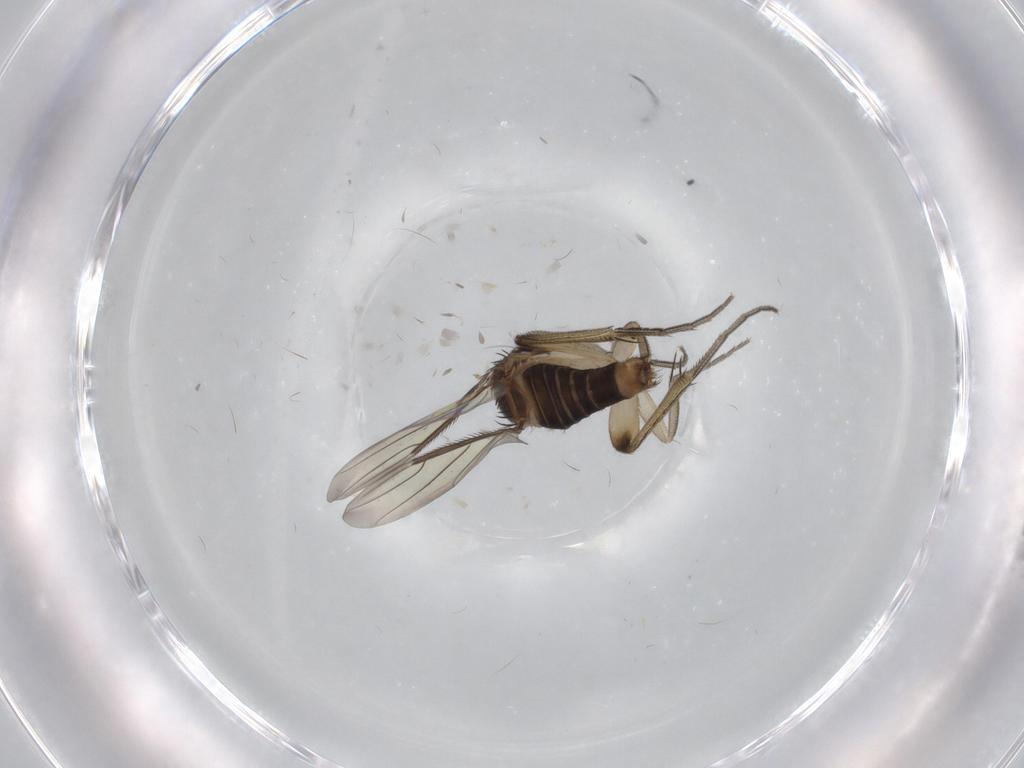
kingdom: Animalia
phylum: Arthropoda
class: Insecta
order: Diptera
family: Phoridae
